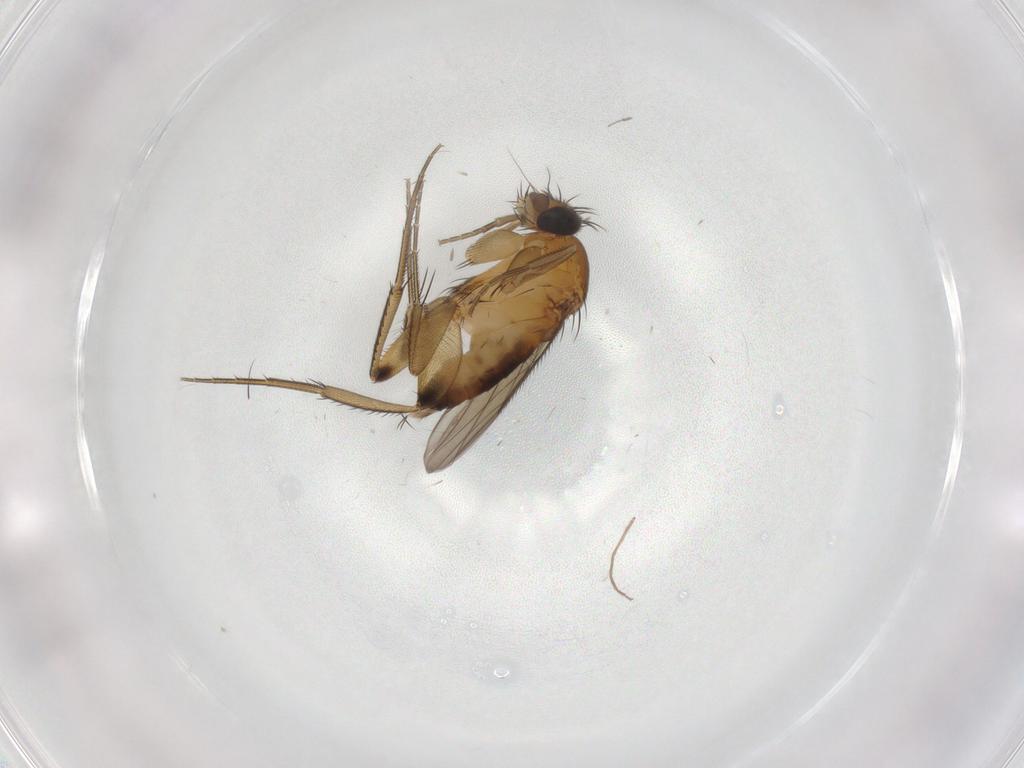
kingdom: Animalia
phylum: Arthropoda
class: Insecta
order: Diptera
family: Phoridae
